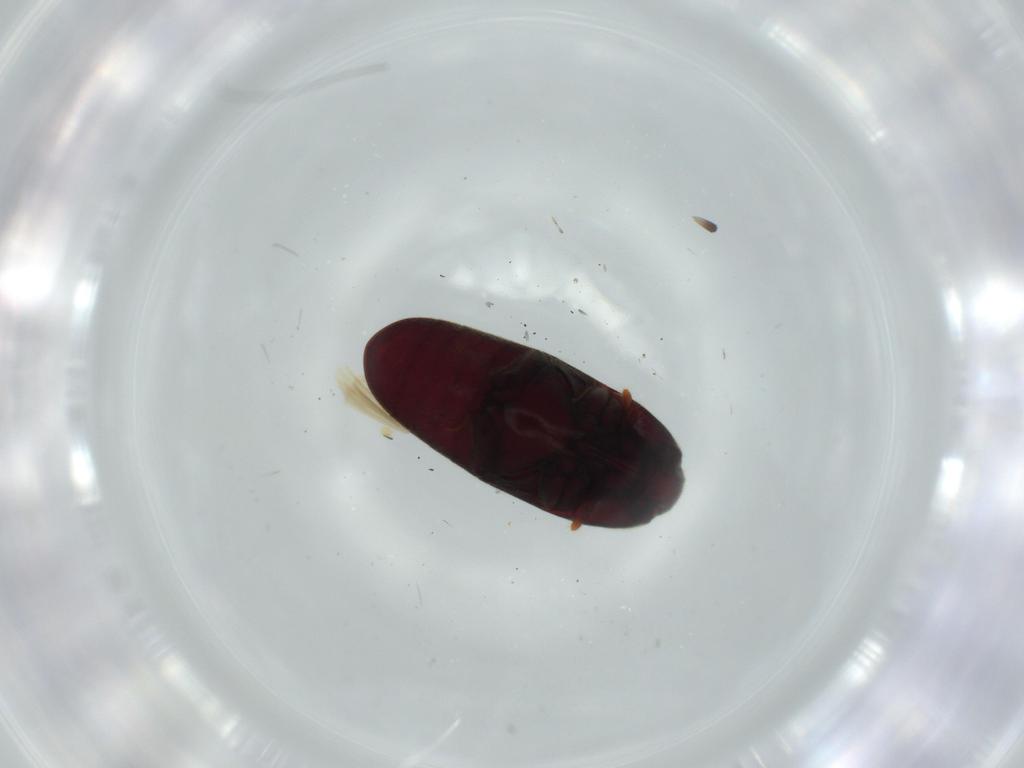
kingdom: Animalia
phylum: Arthropoda
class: Insecta
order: Coleoptera
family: Throscidae
